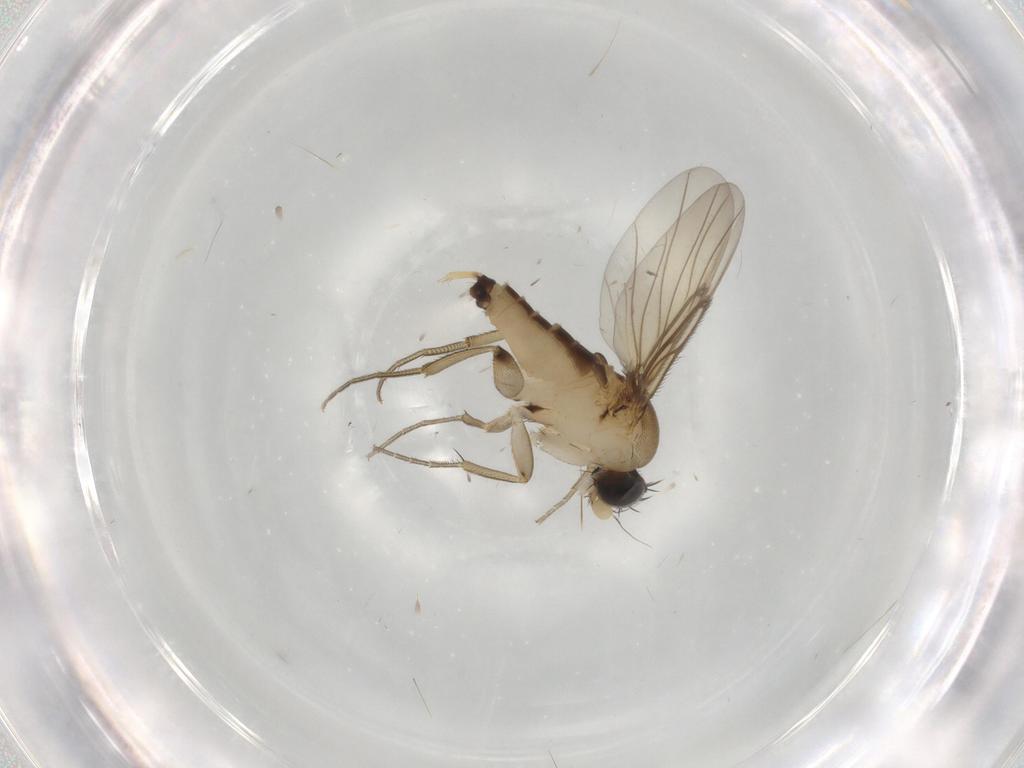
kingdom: Animalia
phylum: Arthropoda
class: Insecta
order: Diptera
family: Phoridae
